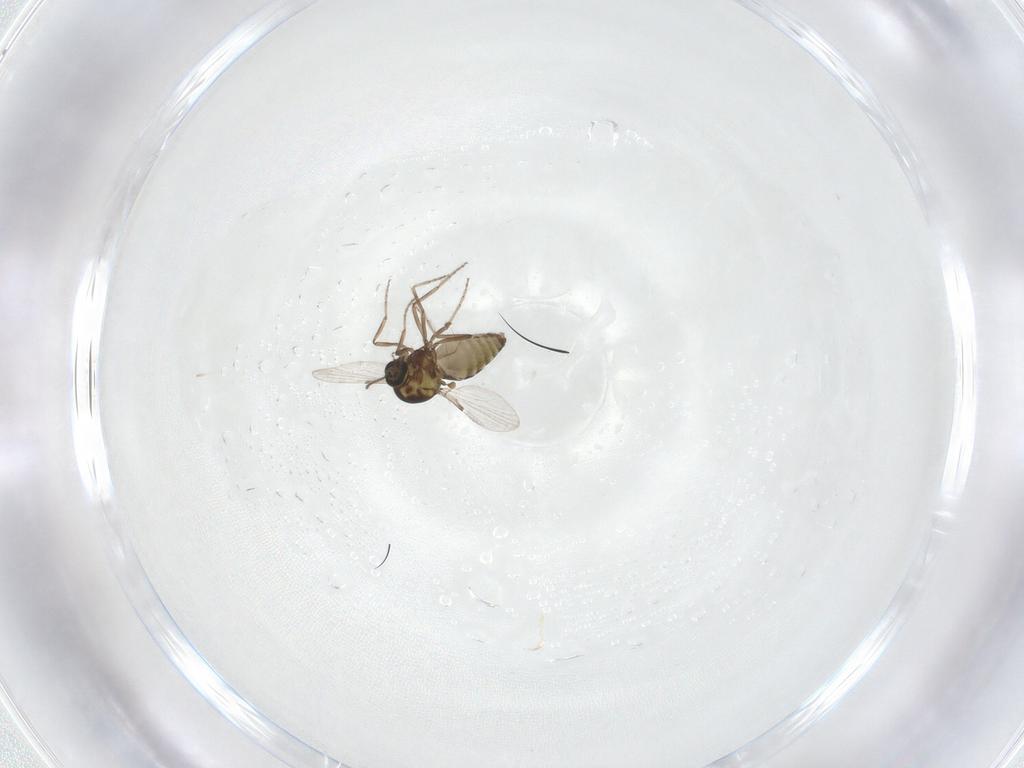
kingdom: Animalia
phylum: Arthropoda
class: Insecta
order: Diptera
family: Ceratopogonidae
